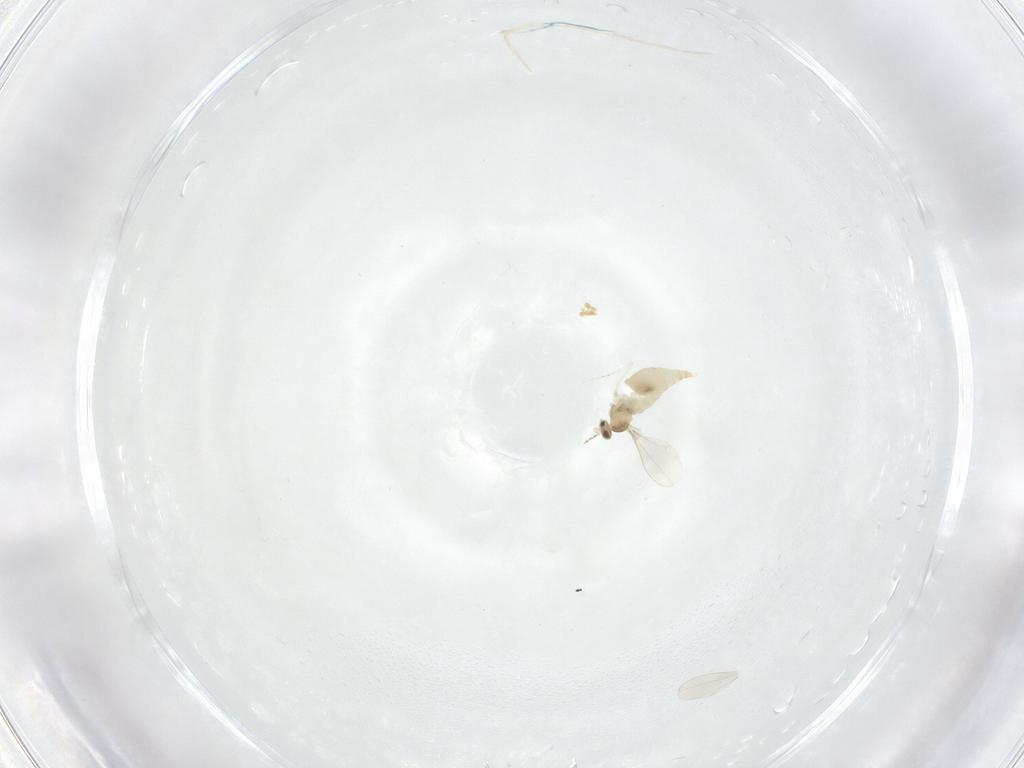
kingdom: Animalia
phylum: Arthropoda
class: Insecta
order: Diptera
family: Cecidomyiidae
